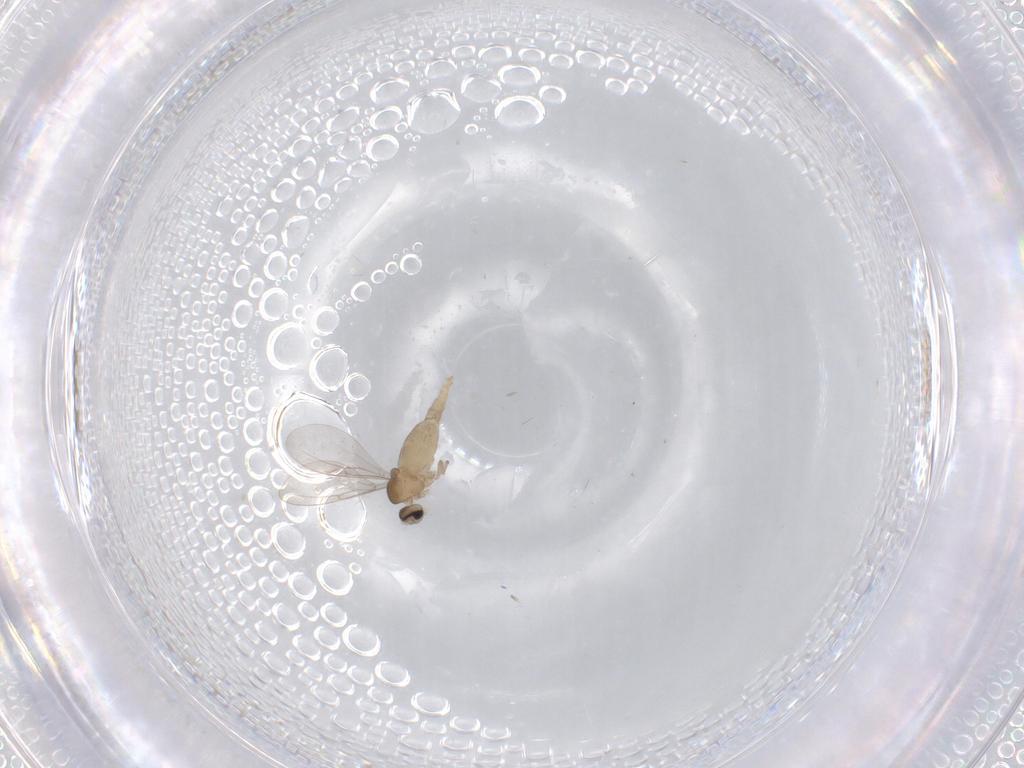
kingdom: Animalia
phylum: Arthropoda
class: Insecta
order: Diptera
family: Cecidomyiidae
